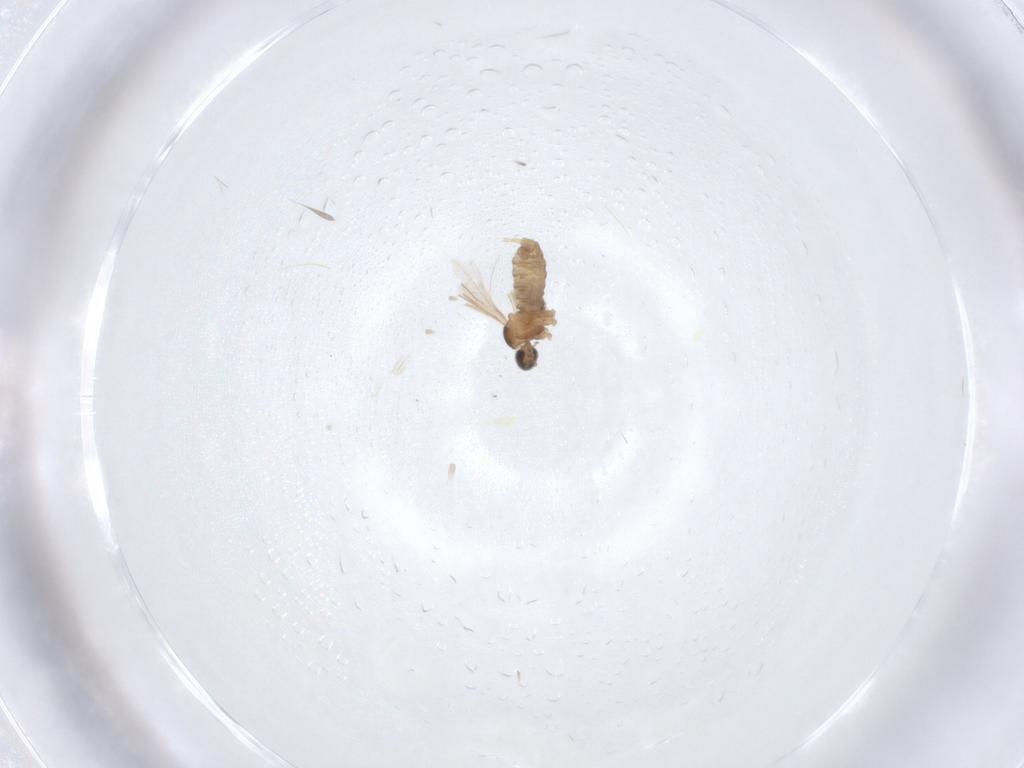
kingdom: Animalia
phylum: Arthropoda
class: Insecta
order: Diptera
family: Cecidomyiidae
